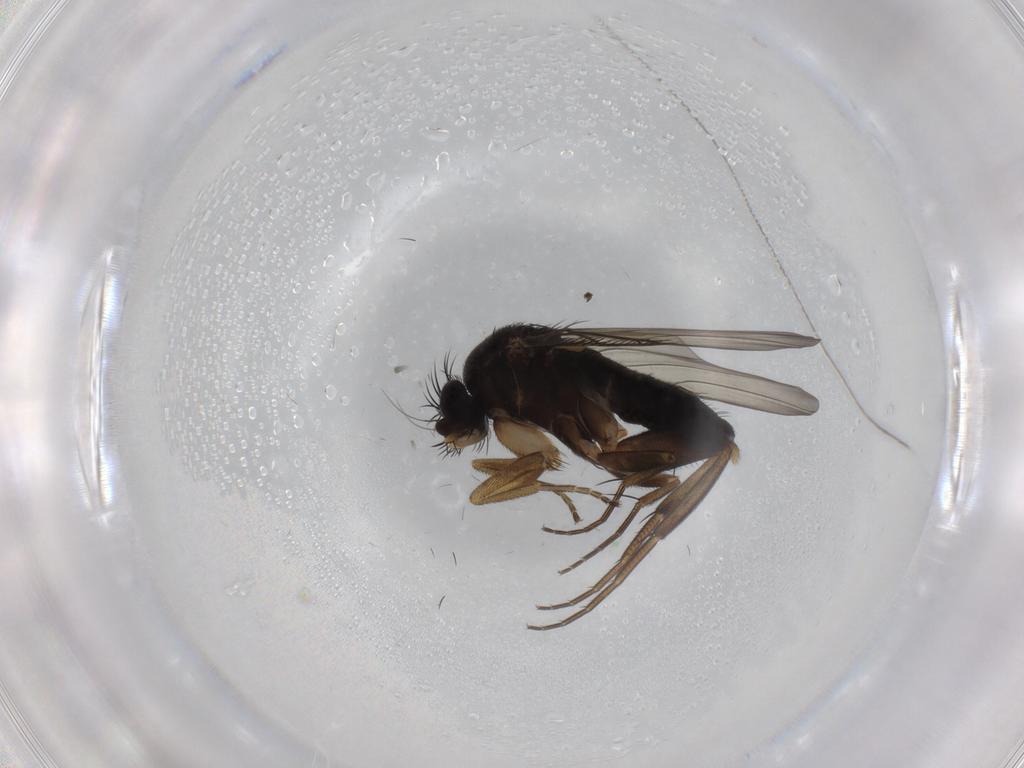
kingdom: Animalia
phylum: Arthropoda
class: Insecta
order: Diptera
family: Phoridae
